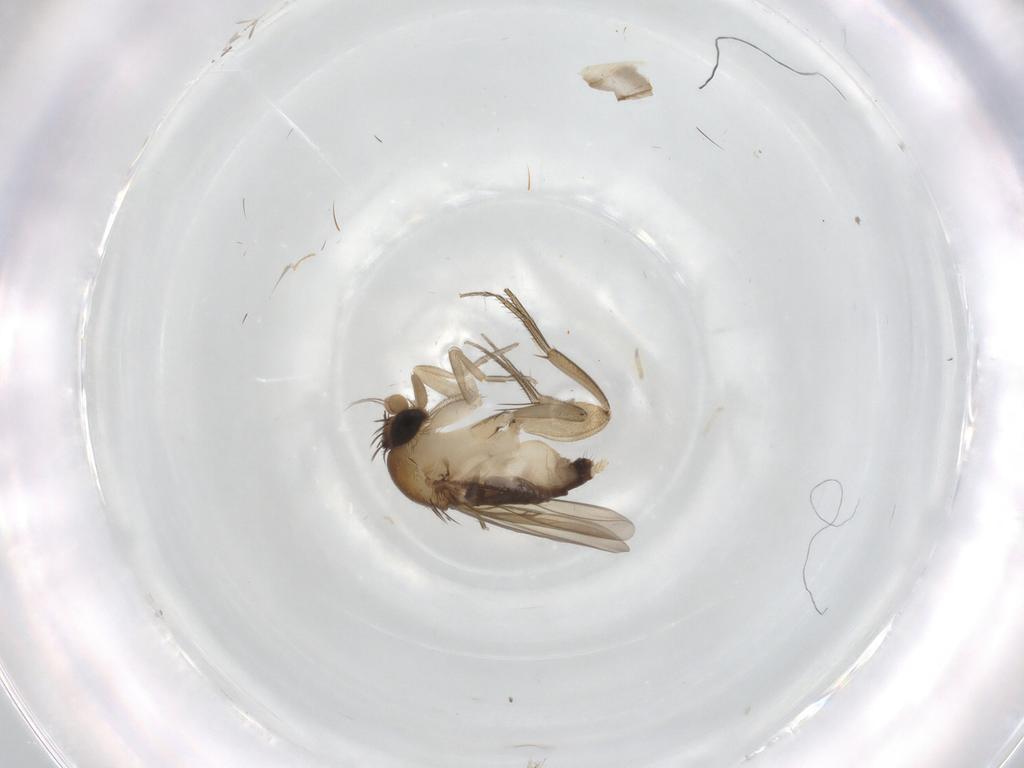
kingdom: Animalia
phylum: Arthropoda
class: Insecta
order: Diptera
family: Phoridae
